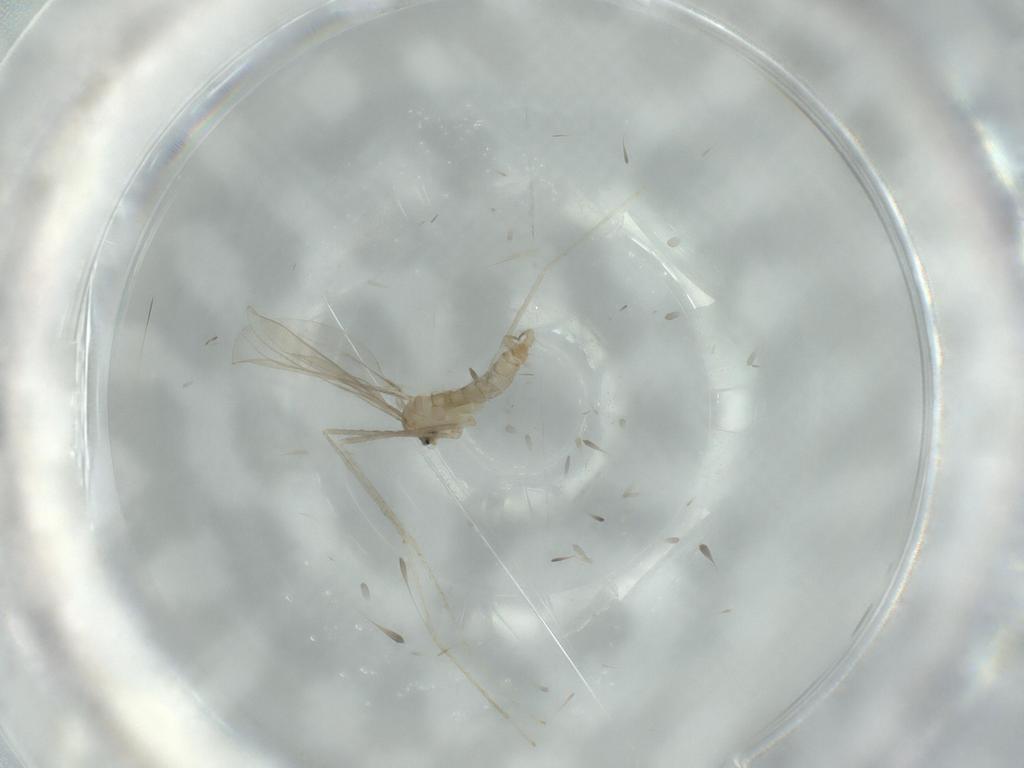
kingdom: Animalia
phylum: Arthropoda
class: Insecta
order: Diptera
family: Cecidomyiidae
